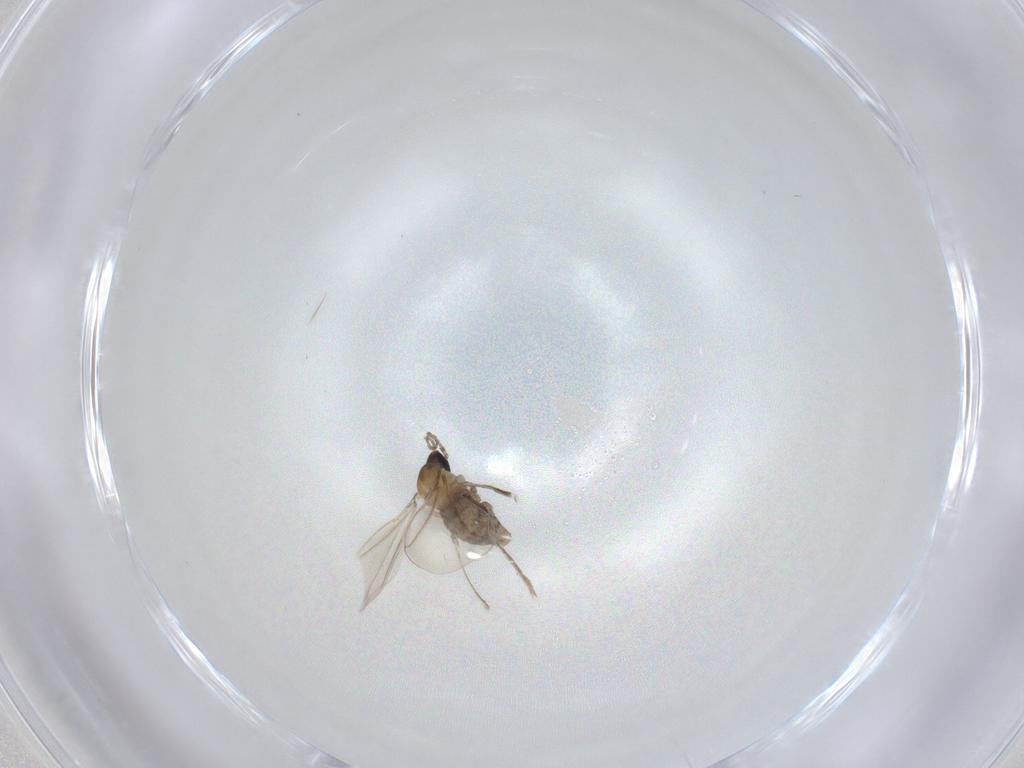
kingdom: Animalia
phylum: Arthropoda
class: Insecta
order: Diptera
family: Cecidomyiidae
